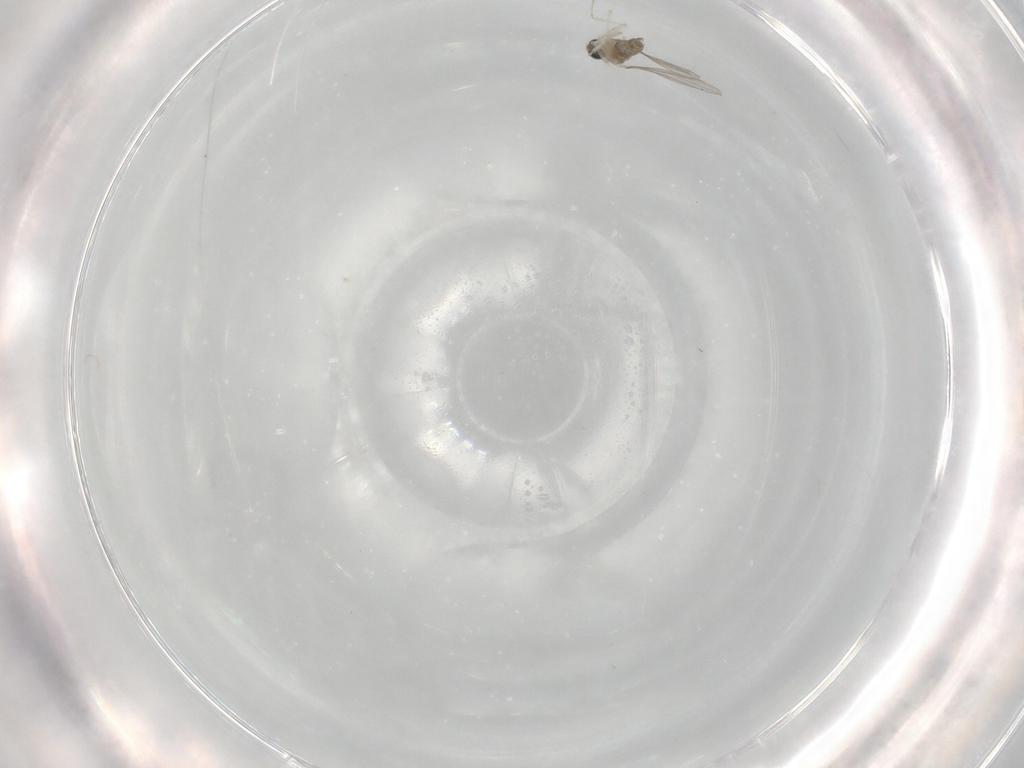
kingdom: Animalia
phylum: Arthropoda
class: Insecta
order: Diptera
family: Cecidomyiidae
